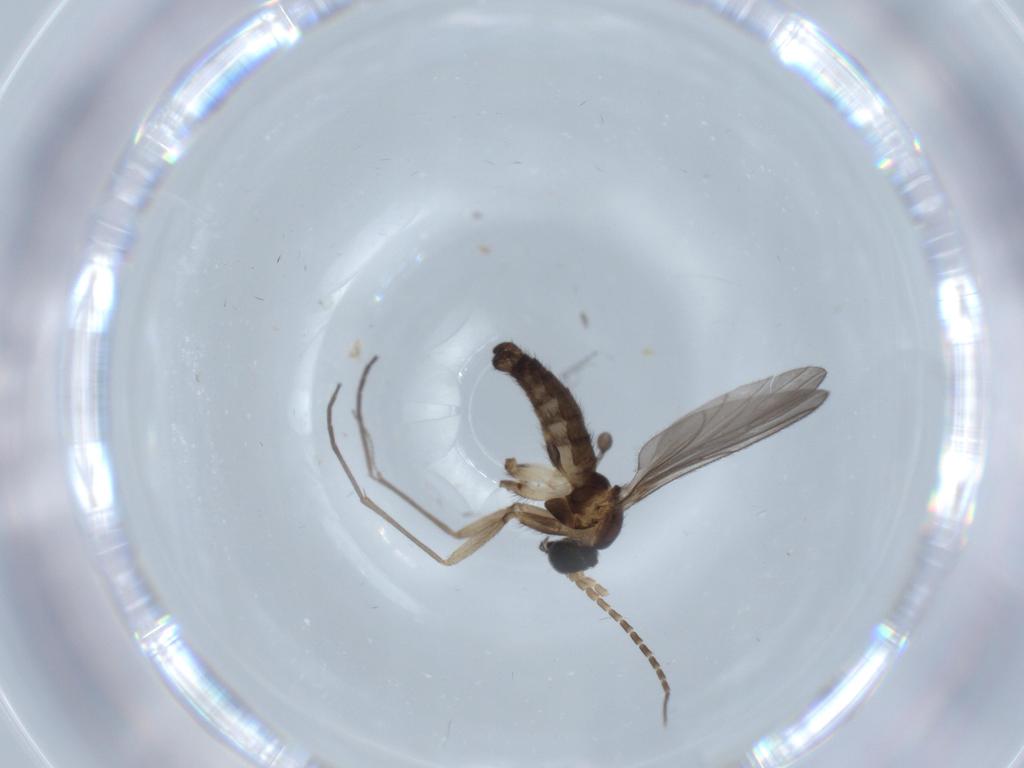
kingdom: Animalia
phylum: Arthropoda
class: Insecta
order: Diptera
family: Sciaridae
